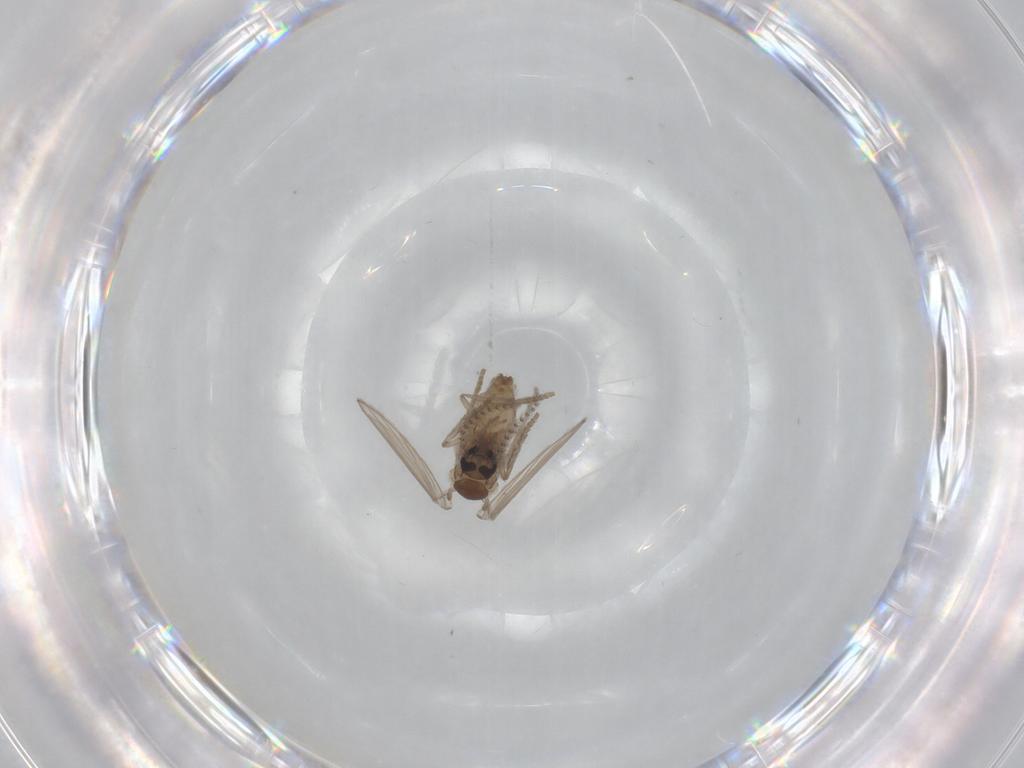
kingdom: Animalia
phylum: Arthropoda
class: Insecta
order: Diptera
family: Psychodidae
